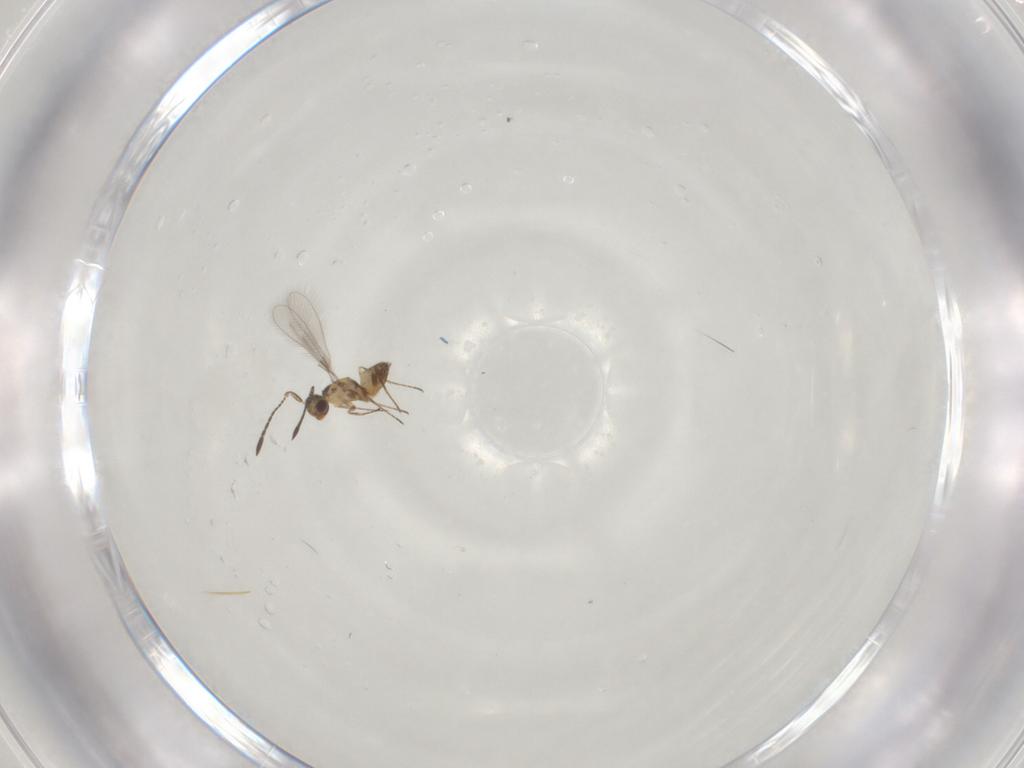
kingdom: Animalia
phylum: Arthropoda
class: Insecta
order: Hymenoptera
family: Mymaridae
